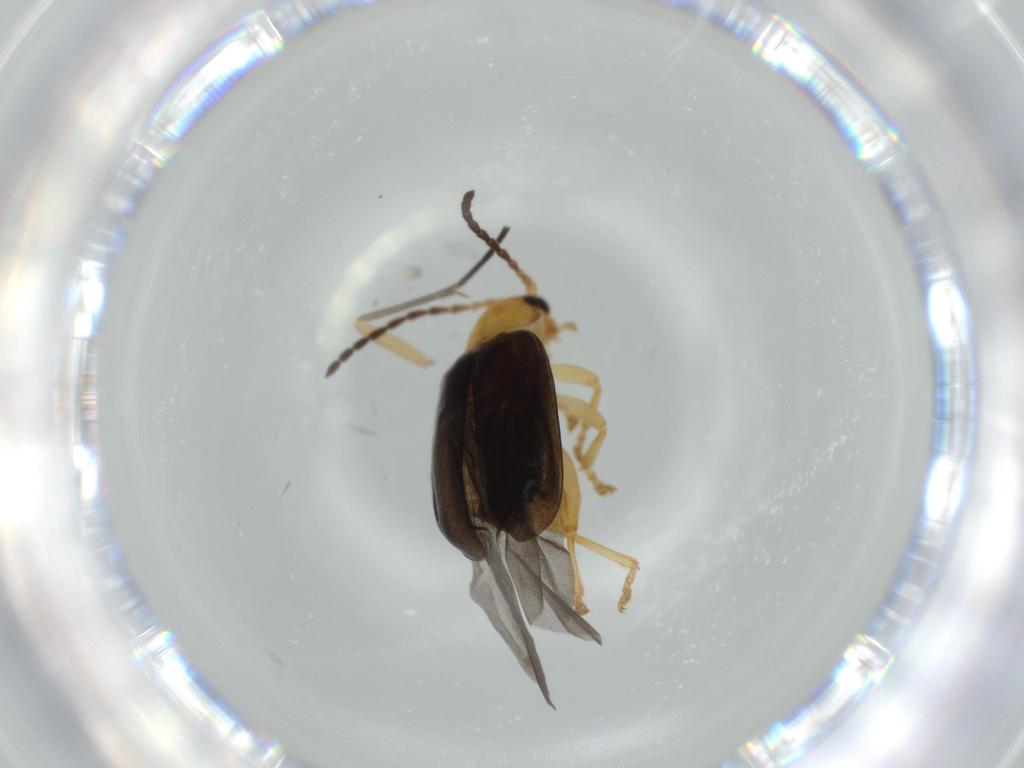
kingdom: Animalia
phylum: Arthropoda
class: Insecta
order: Coleoptera
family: Chrysomelidae
